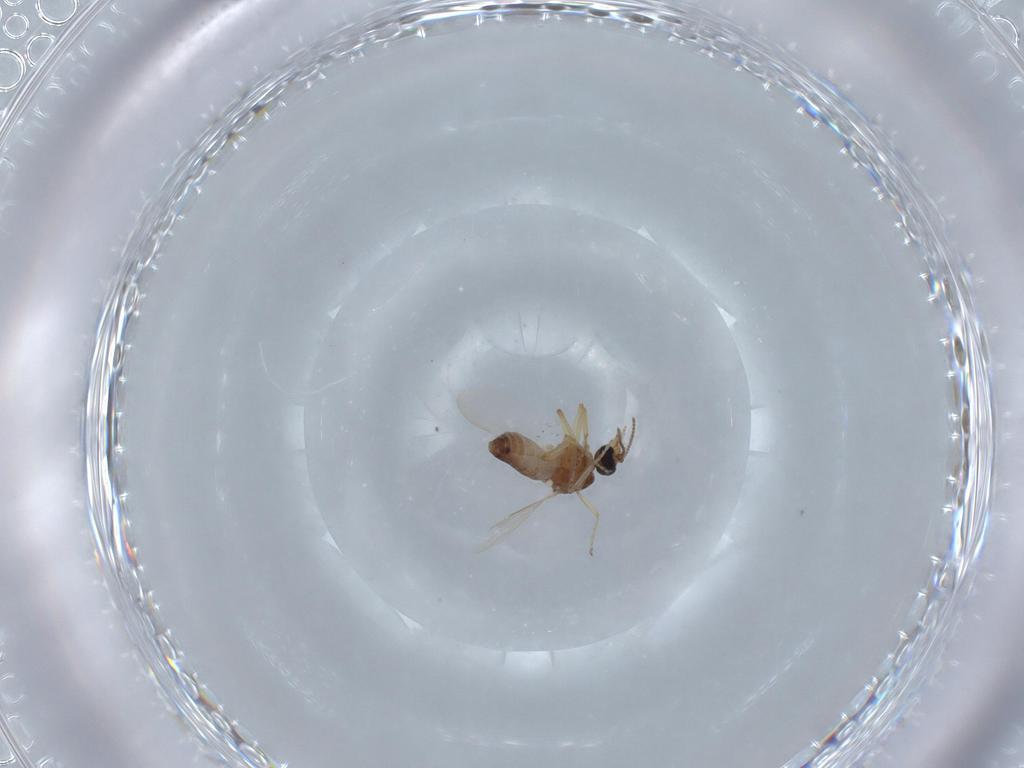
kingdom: Animalia
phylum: Arthropoda
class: Insecta
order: Diptera
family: Ceratopogonidae
